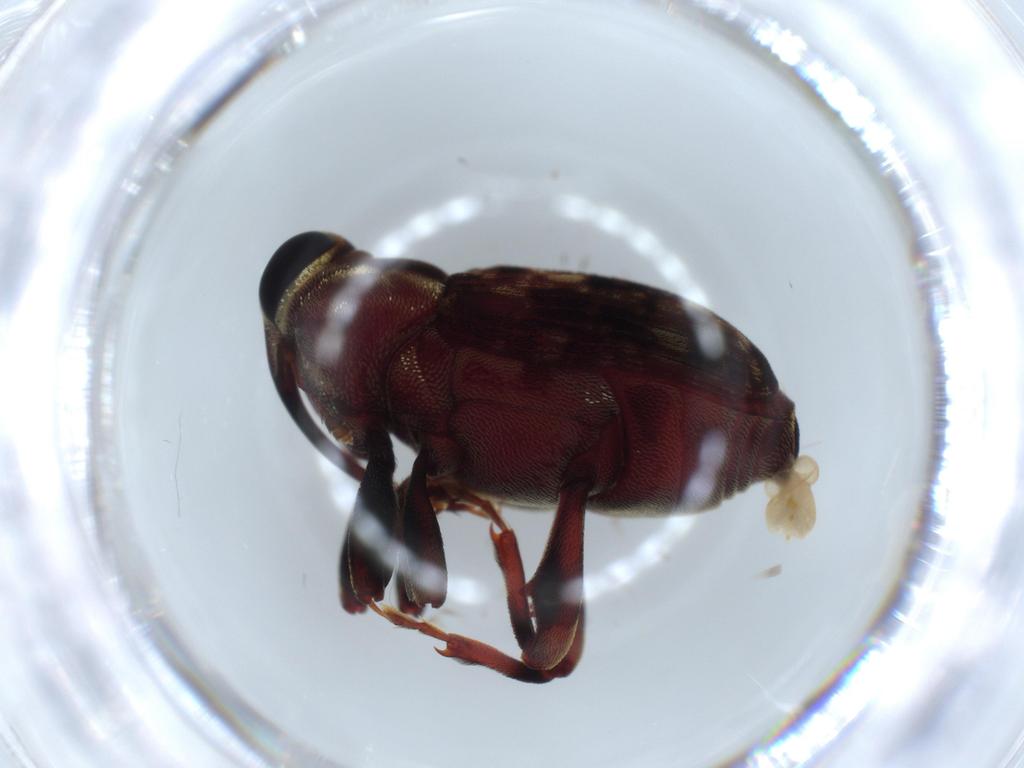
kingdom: Animalia
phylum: Arthropoda
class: Insecta
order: Coleoptera
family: Curculionidae
